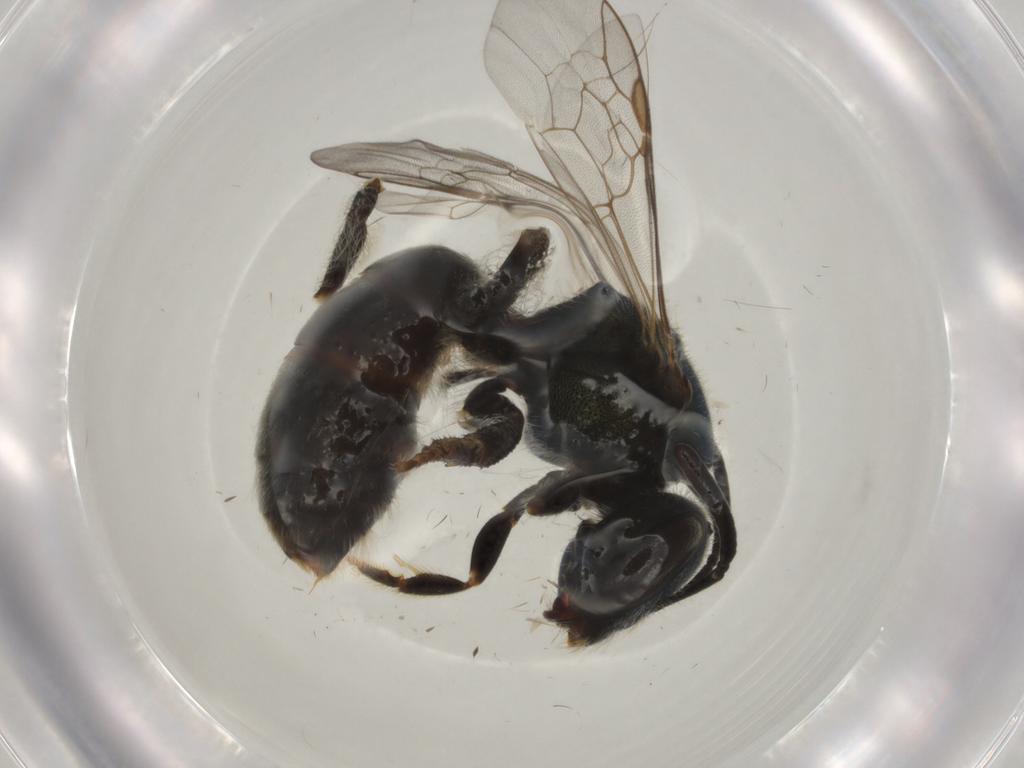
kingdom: Animalia
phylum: Arthropoda
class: Insecta
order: Hymenoptera
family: Halictidae
